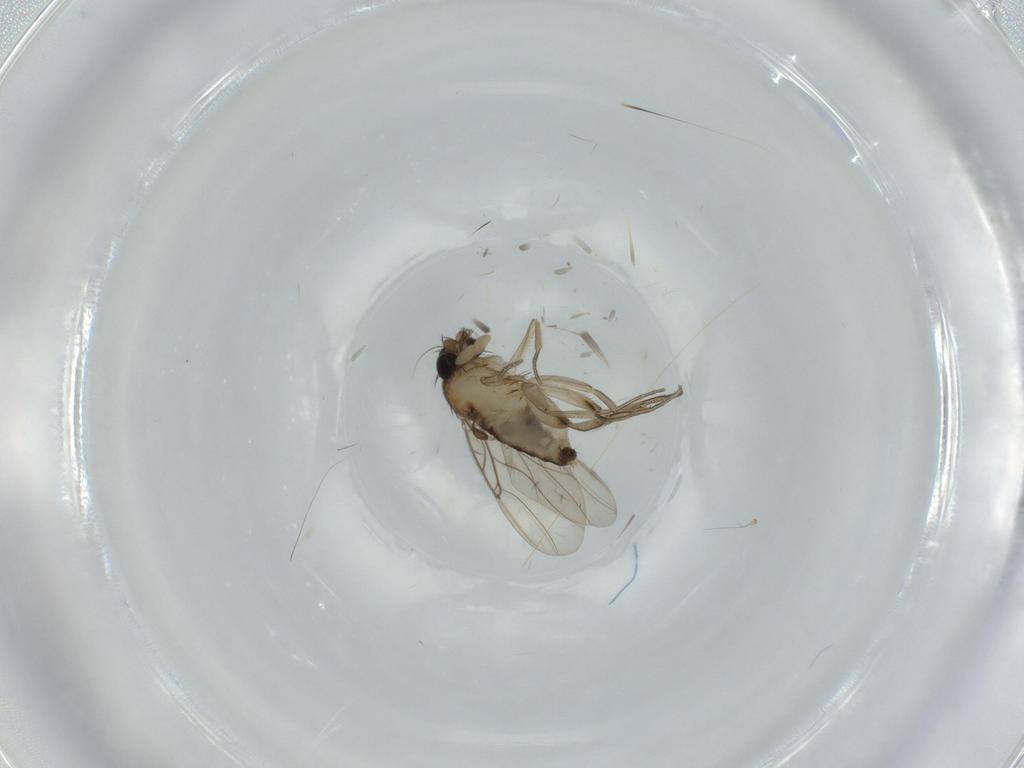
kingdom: Animalia
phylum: Arthropoda
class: Insecta
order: Diptera
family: Phoridae
